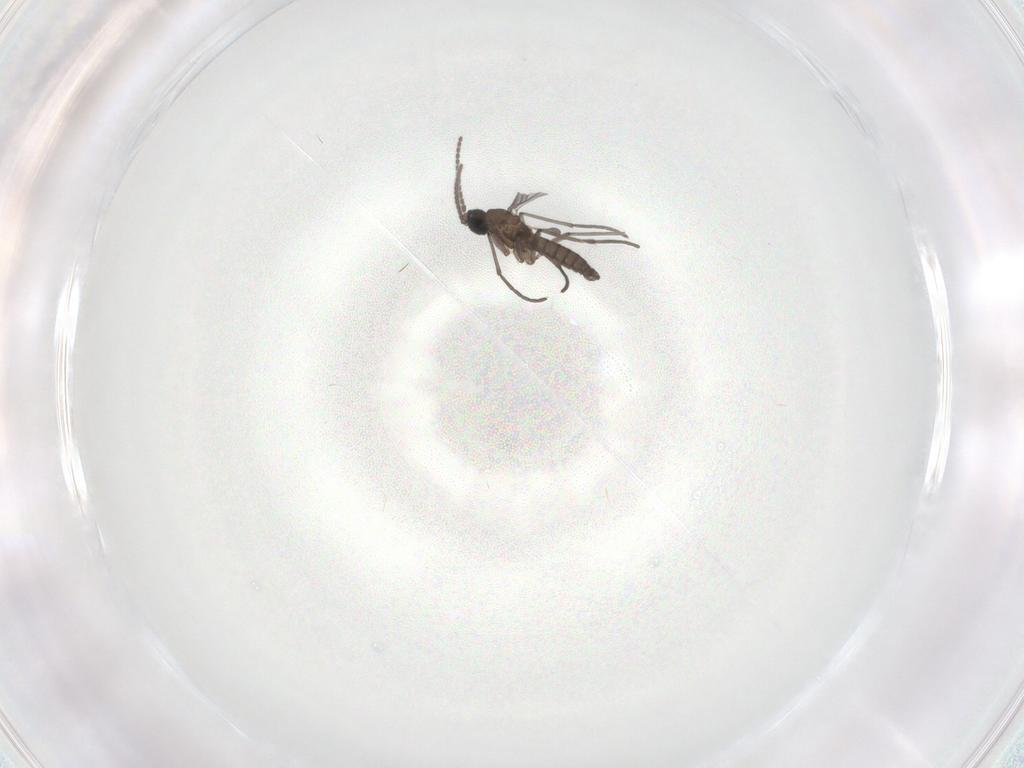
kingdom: Animalia
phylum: Arthropoda
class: Insecta
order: Diptera
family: Sciaridae
